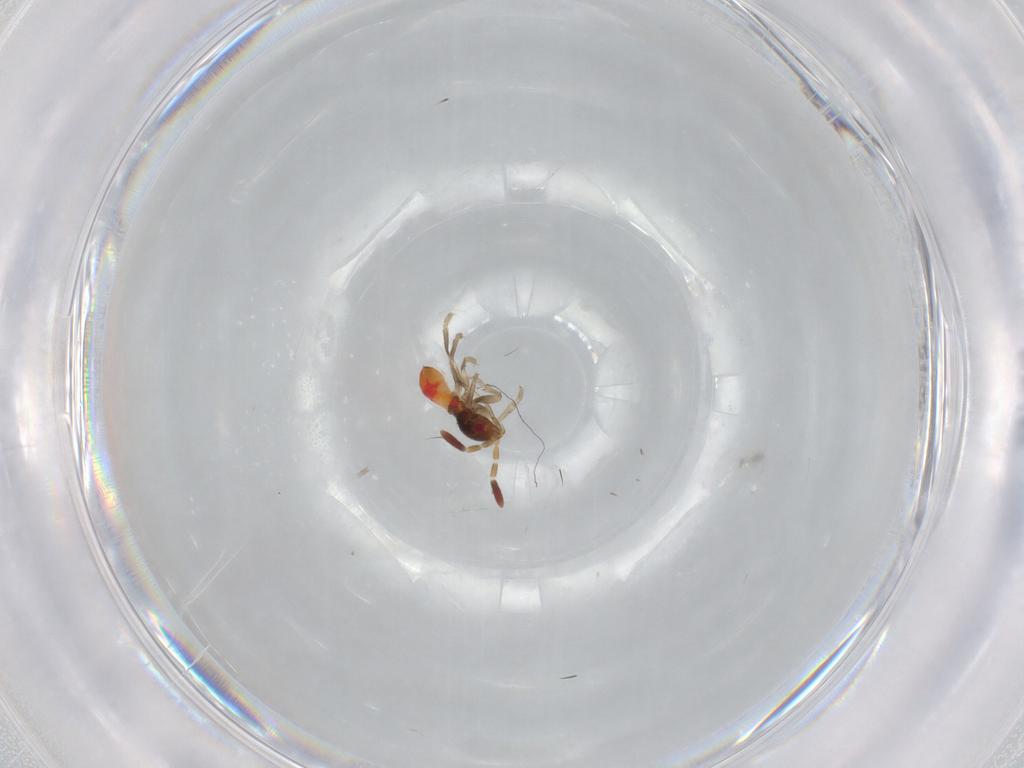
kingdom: Animalia
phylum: Arthropoda
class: Insecta
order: Hemiptera
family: Rhyparochromidae
